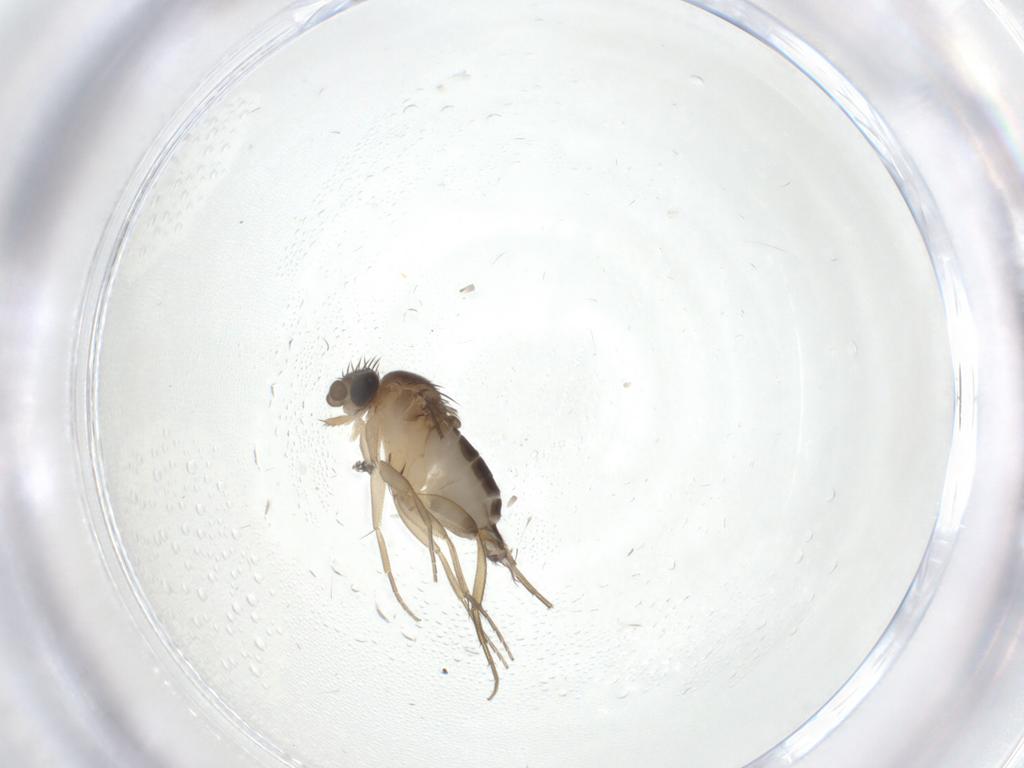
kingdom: Animalia
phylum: Arthropoda
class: Insecta
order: Diptera
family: Phoridae
